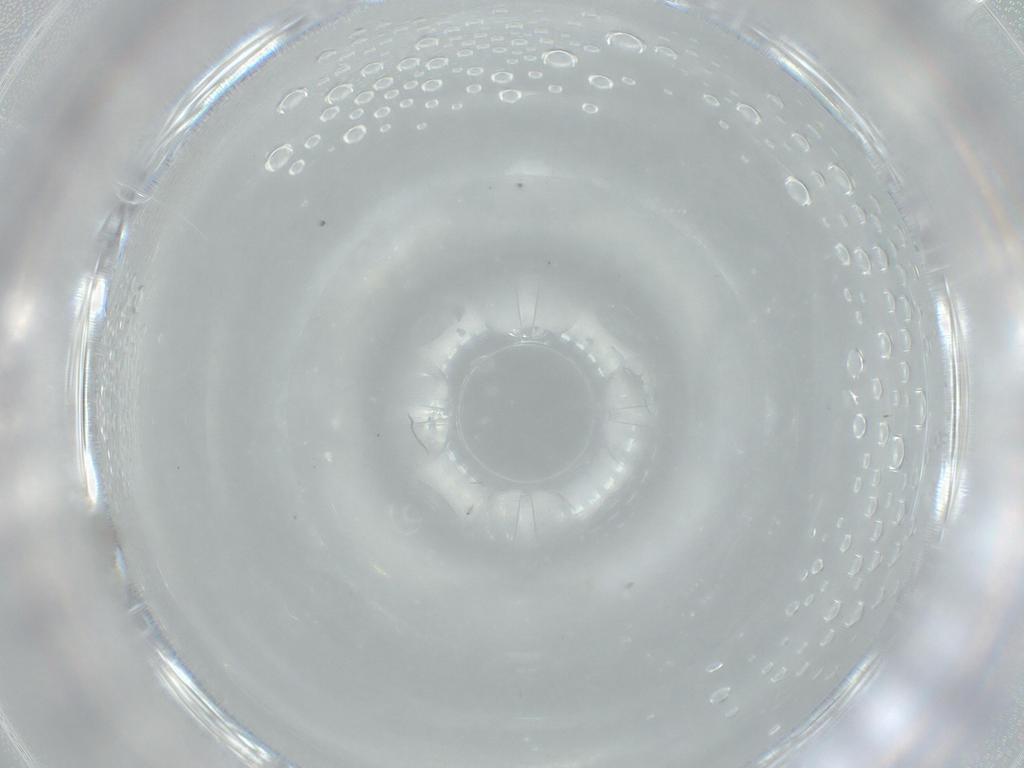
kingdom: Animalia
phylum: Arthropoda
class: Insecta
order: Diptera
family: Cecidomyiidae
